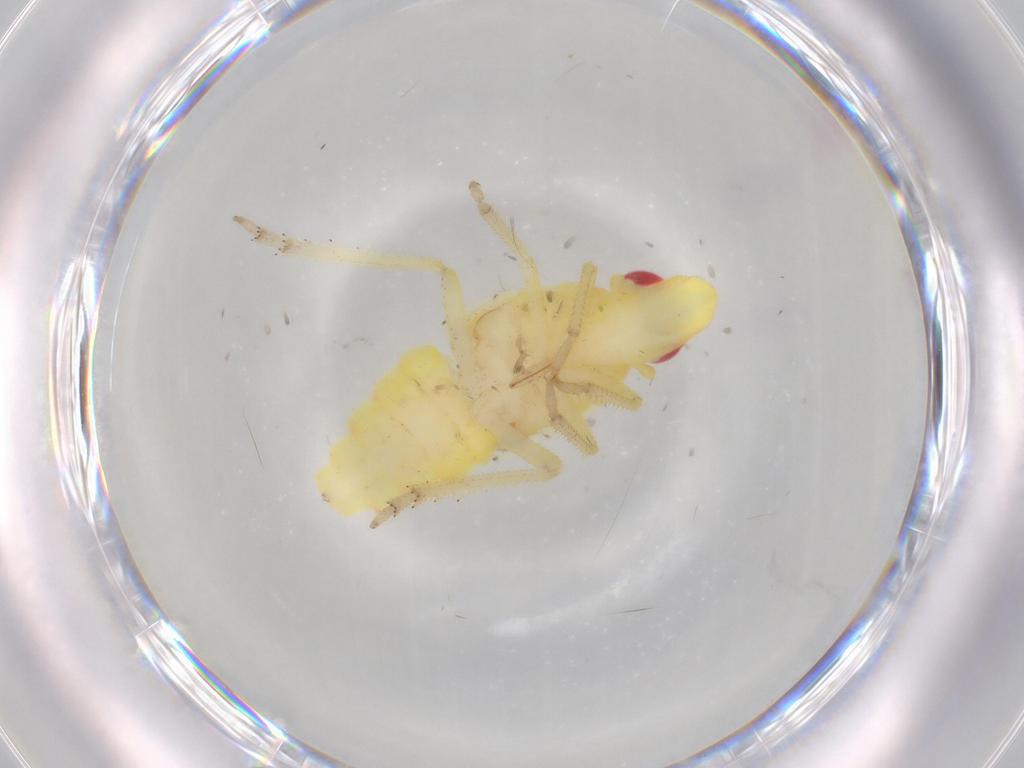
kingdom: Animalia
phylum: Arthropoda
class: Insecta
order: Hemiptera
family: Tropiduchidae
